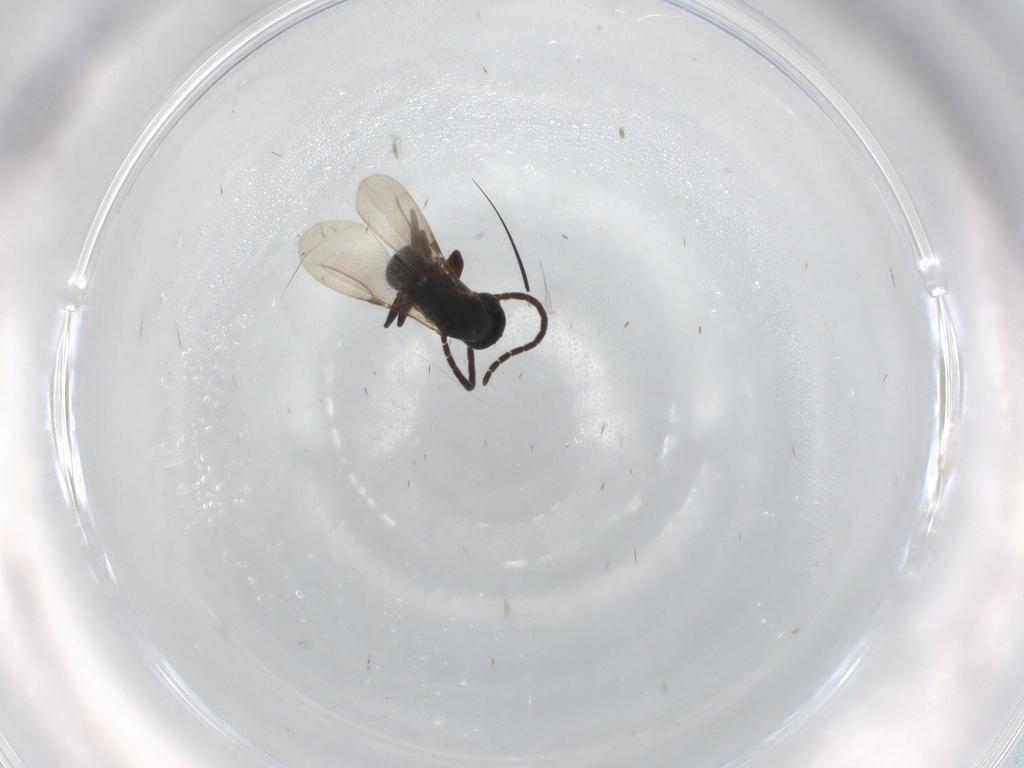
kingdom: Animalia
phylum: Arthropoda
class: Insecta
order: Hymenoptera
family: Bethylidae
